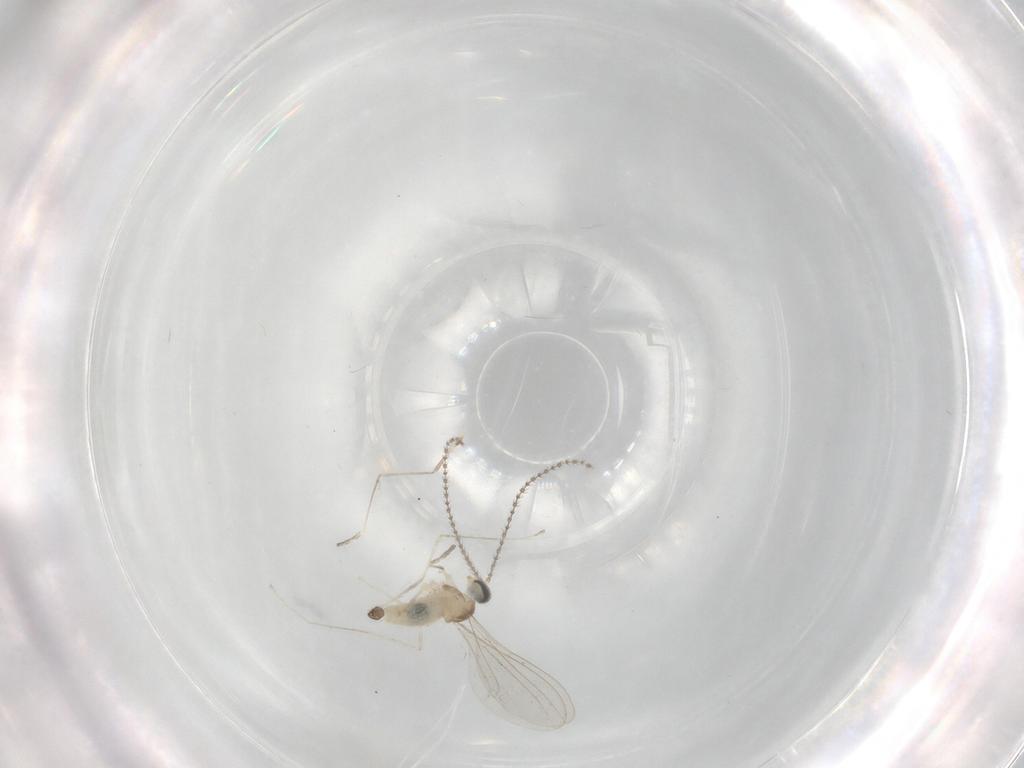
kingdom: Animalia
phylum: Arthropoda
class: Insecta
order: Diptera
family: Cecidomyiidae
